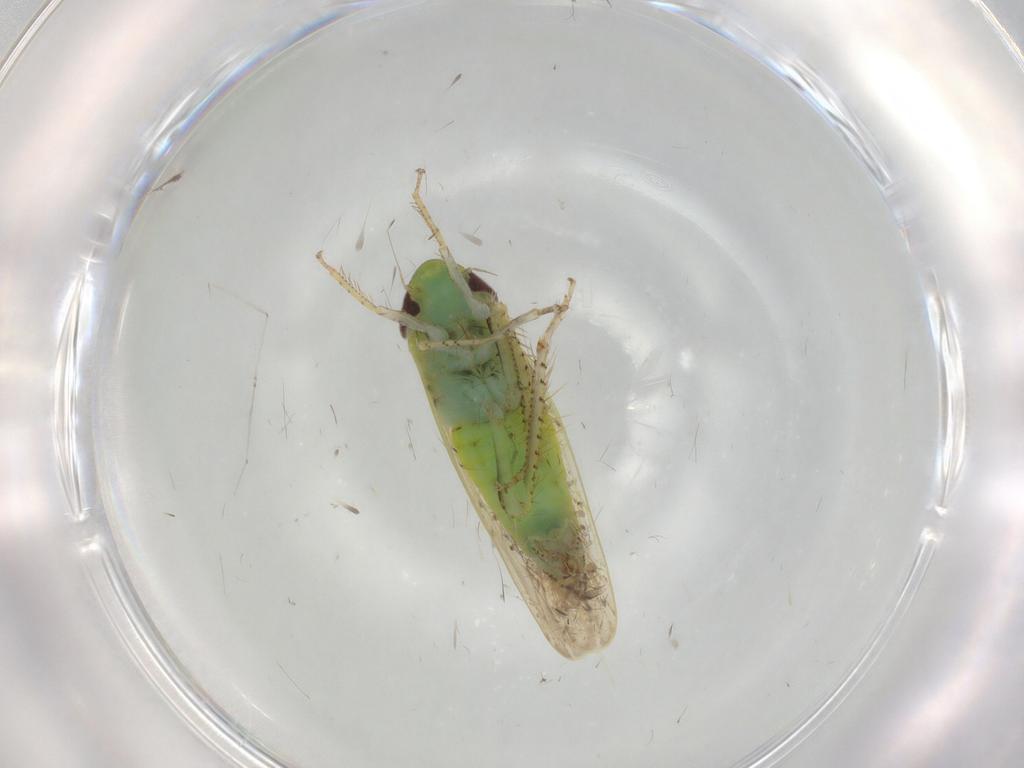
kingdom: Animalia
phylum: Arthropoda
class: Insecta
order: Hemiptera
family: Cicadellidae
